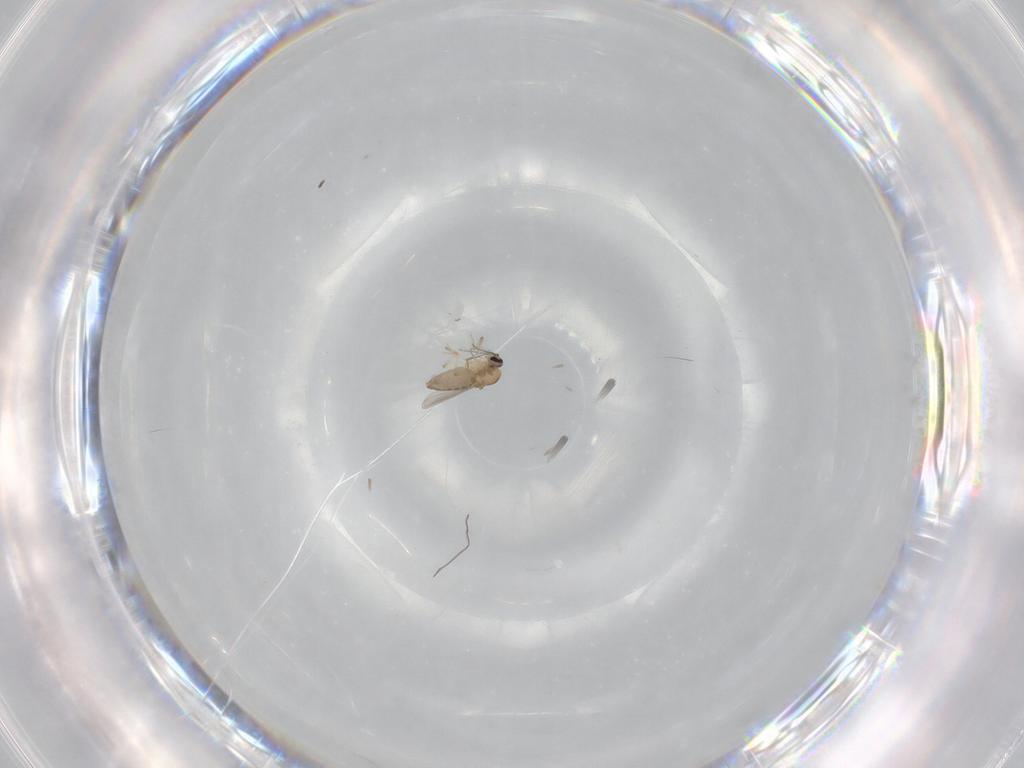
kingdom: Animalia
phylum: Arthropoda
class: Insecta
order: Diptera
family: Ceratopogonidae
